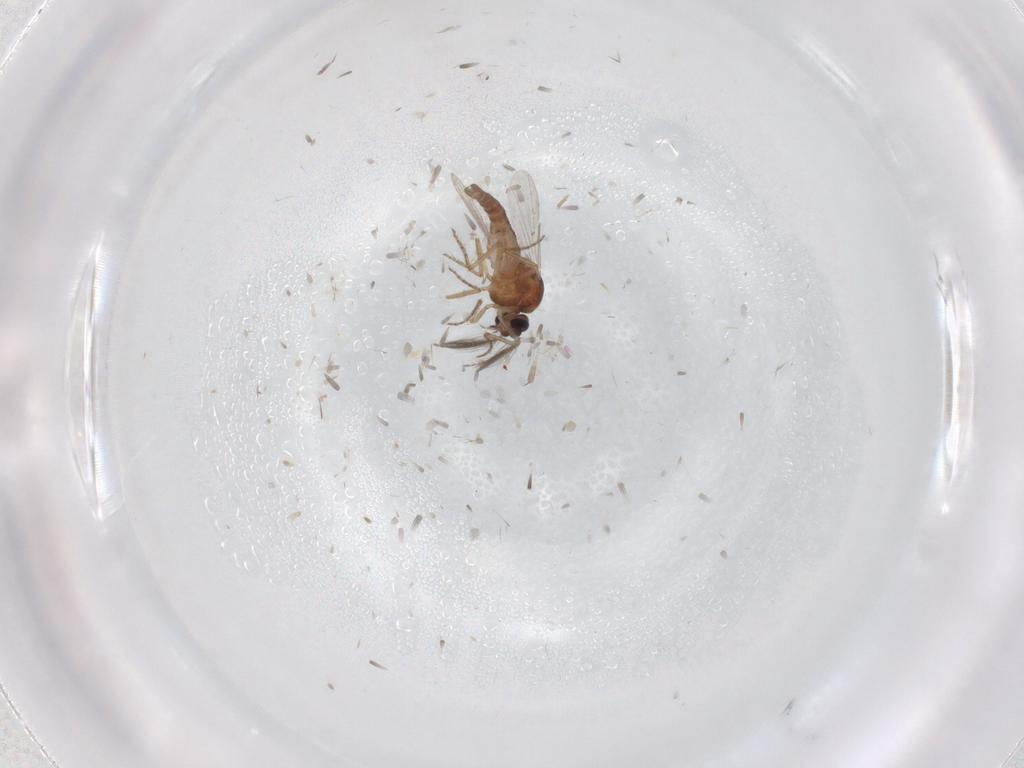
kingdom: Animalia
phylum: Arthropoda
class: Insecta
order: Diptera
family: Ceratopogonidae
